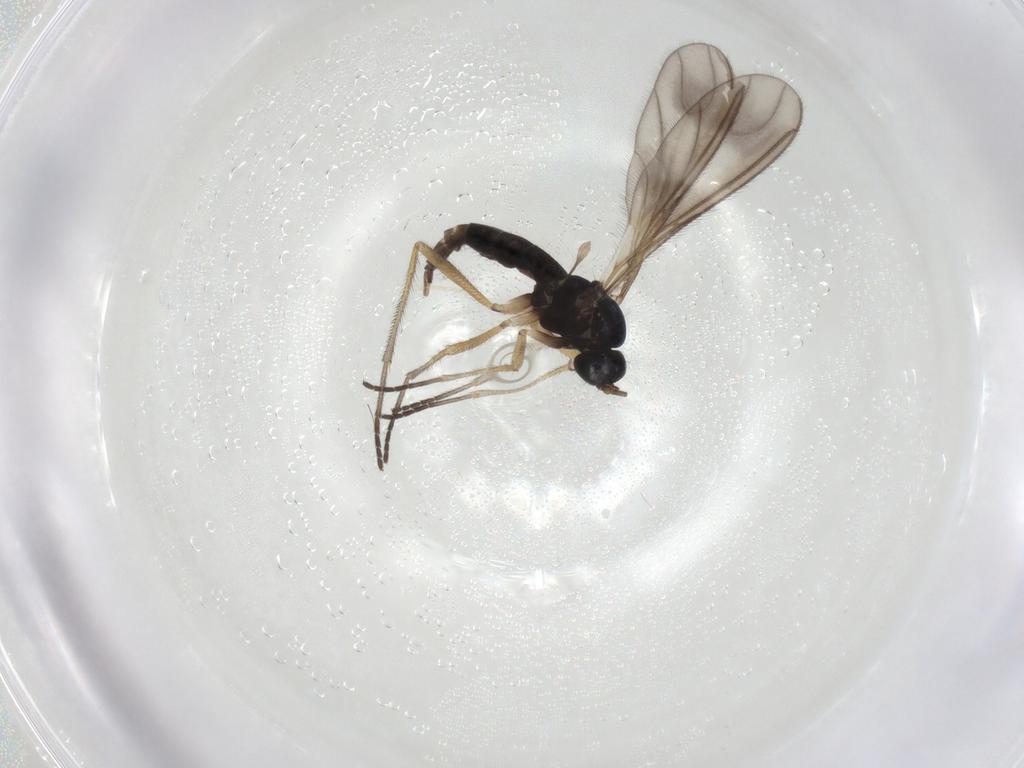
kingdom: Animalia
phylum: Arthropoda
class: Insecta
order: Diptera
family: Sciaridae
